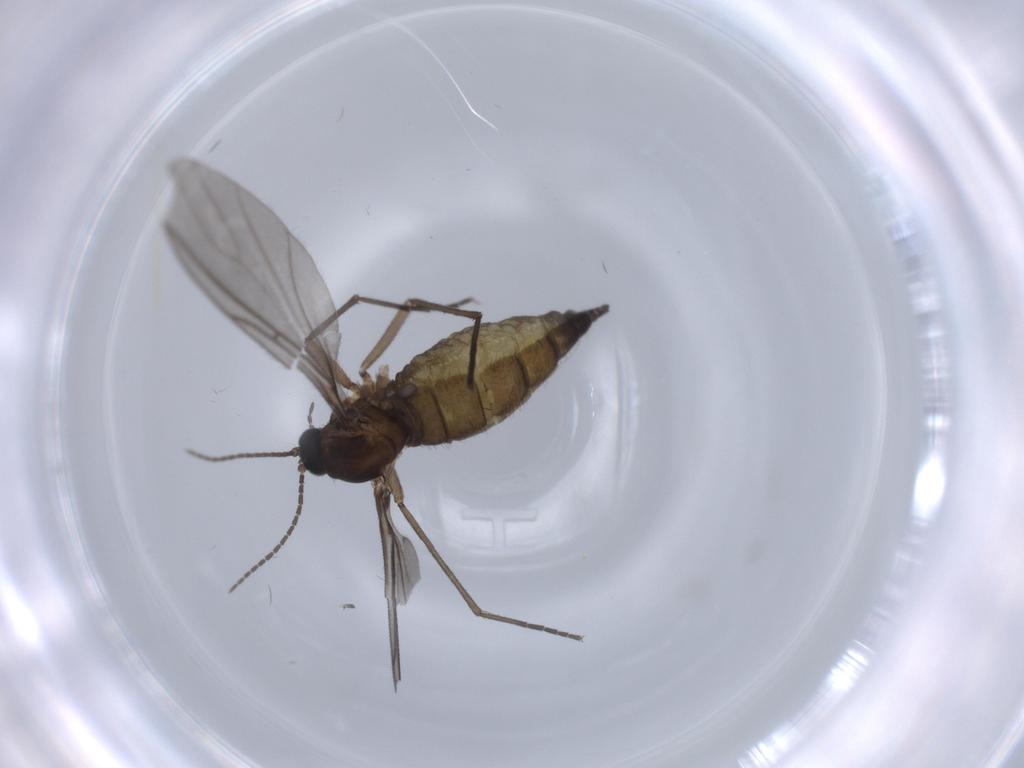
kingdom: Animalia
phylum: Arthropoda
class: Insecta
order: Diptera
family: Sciaridae
